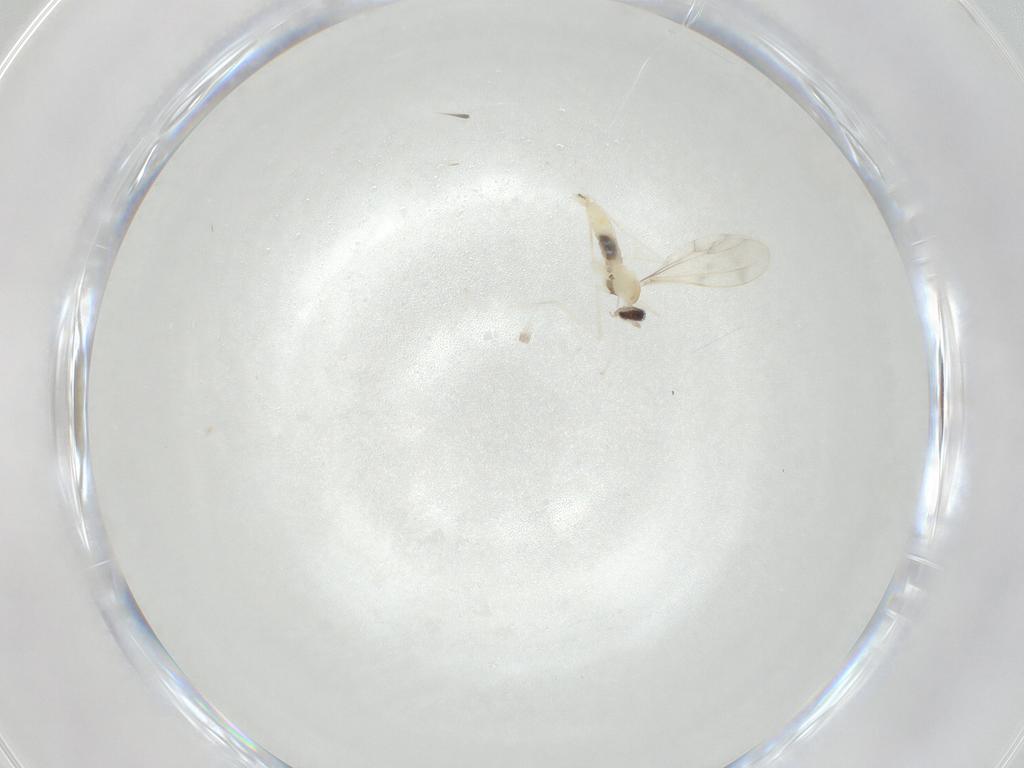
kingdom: Animalia
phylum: Arthropoda
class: Insecta
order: Diptera
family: Cecidomyiidae
